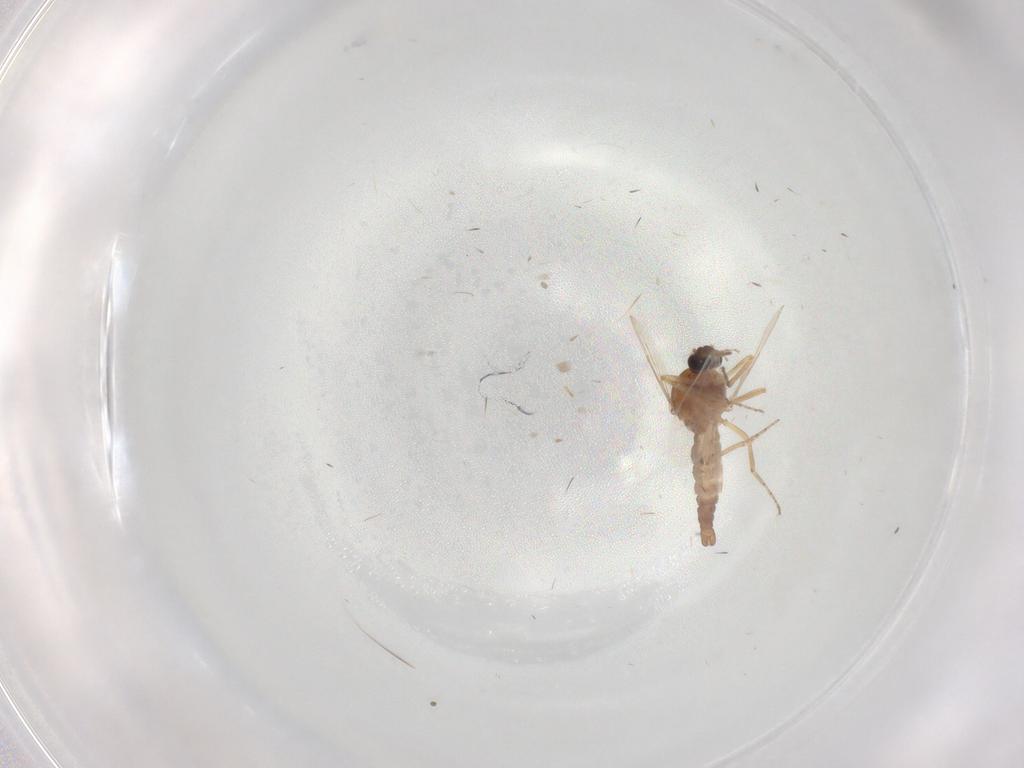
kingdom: Animalia
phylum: Arthropoda
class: Insecta
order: Diptera
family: Ceratopogonidae
